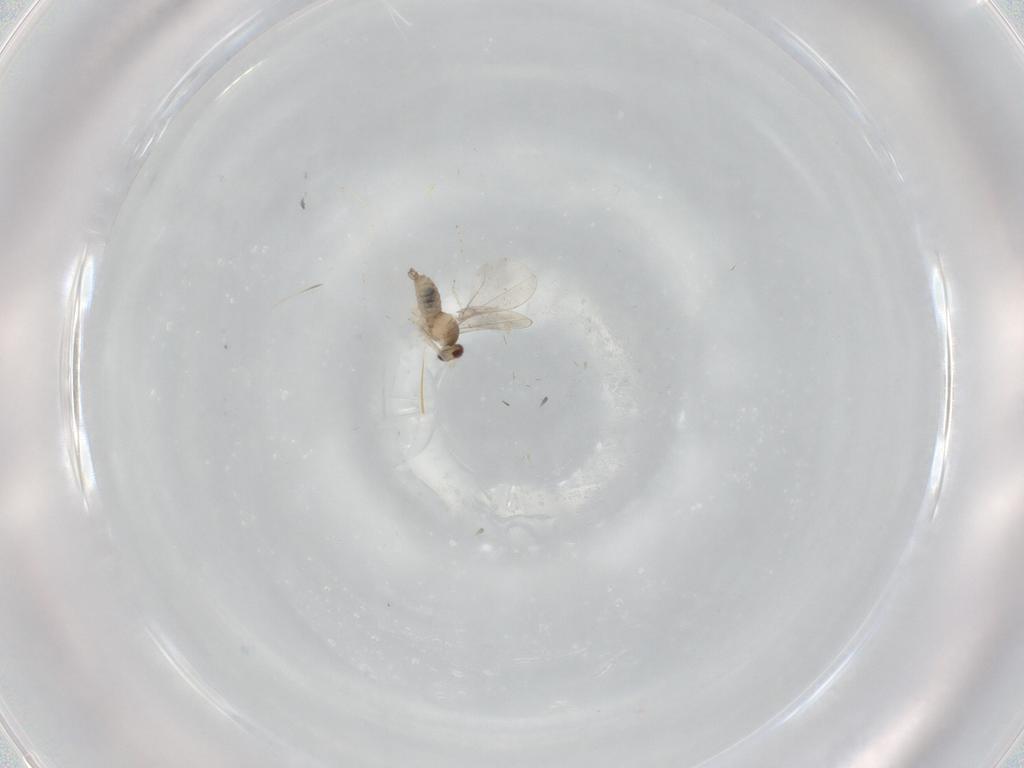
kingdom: Animalia
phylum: Arthropoda
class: Insecta
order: Diptera
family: Cecidomyiidae
